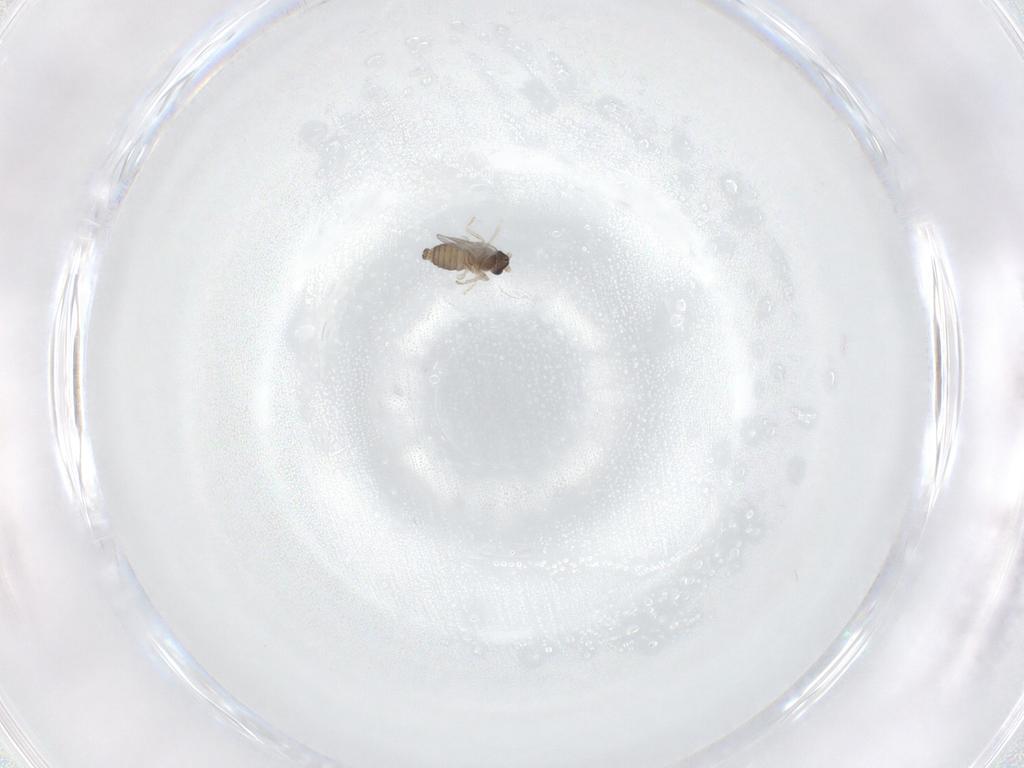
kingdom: Animalia
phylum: Arthropoda
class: Insecta
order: Diptera
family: Cecidomyiidae
